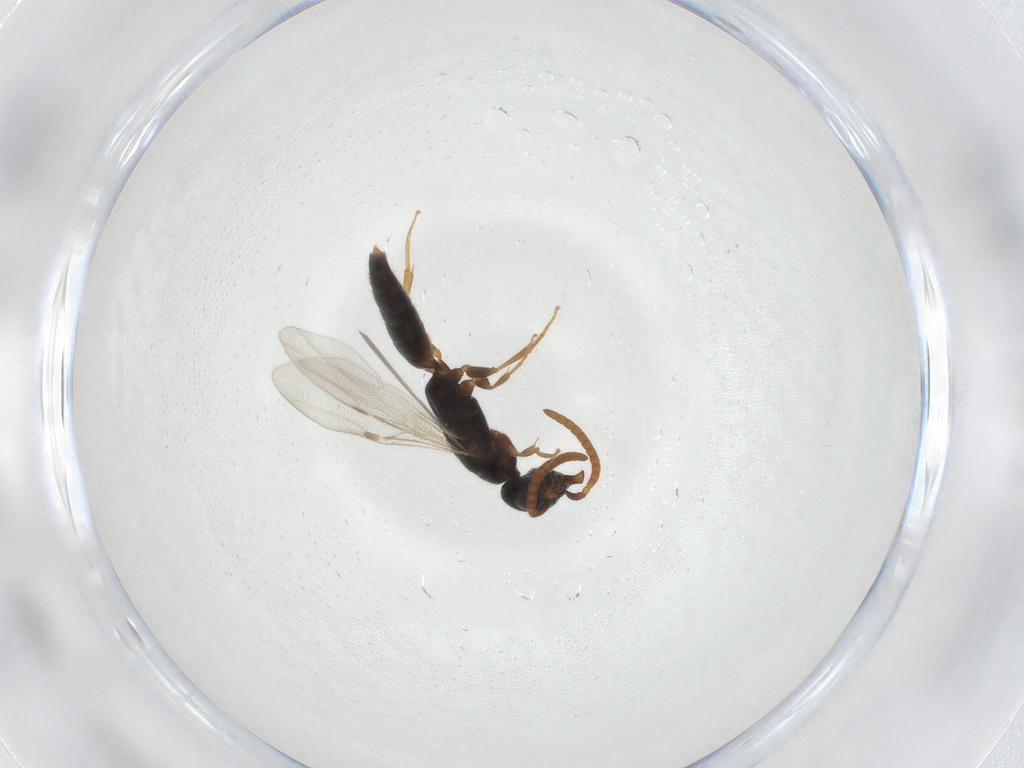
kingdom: Animalia
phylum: Arthropoda
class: Insecta
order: Hymenoptera
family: Bethylidae
